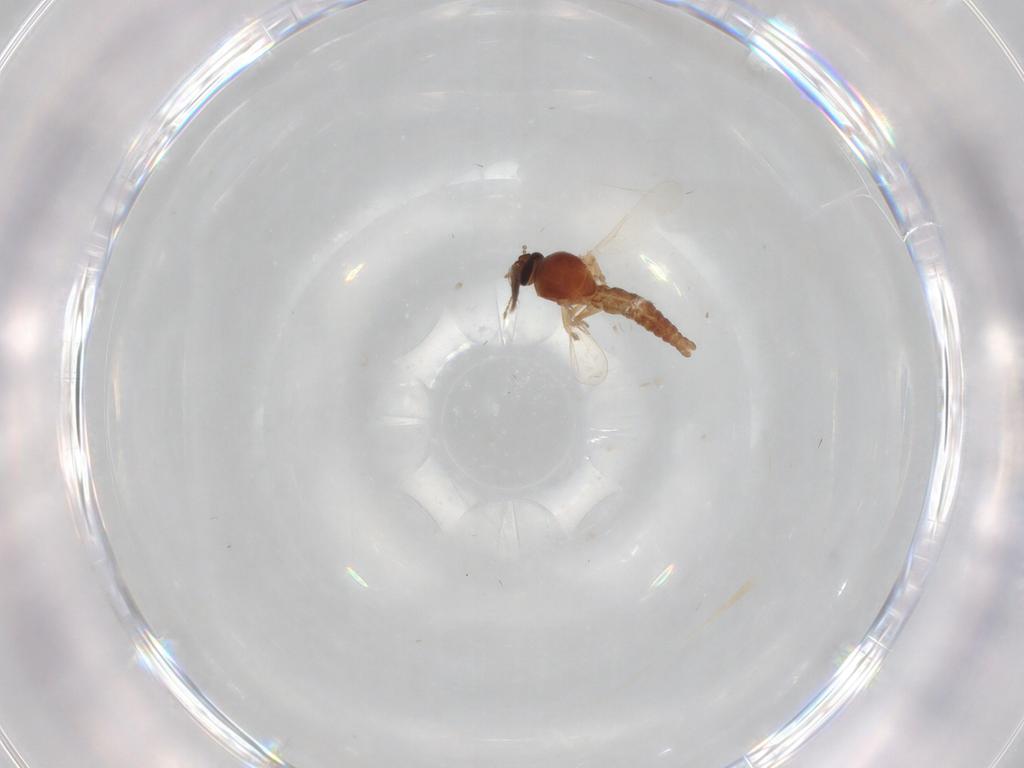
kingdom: Animalia
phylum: Arthropoda
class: Insecta
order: Diptera
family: Ceratopogonidae
